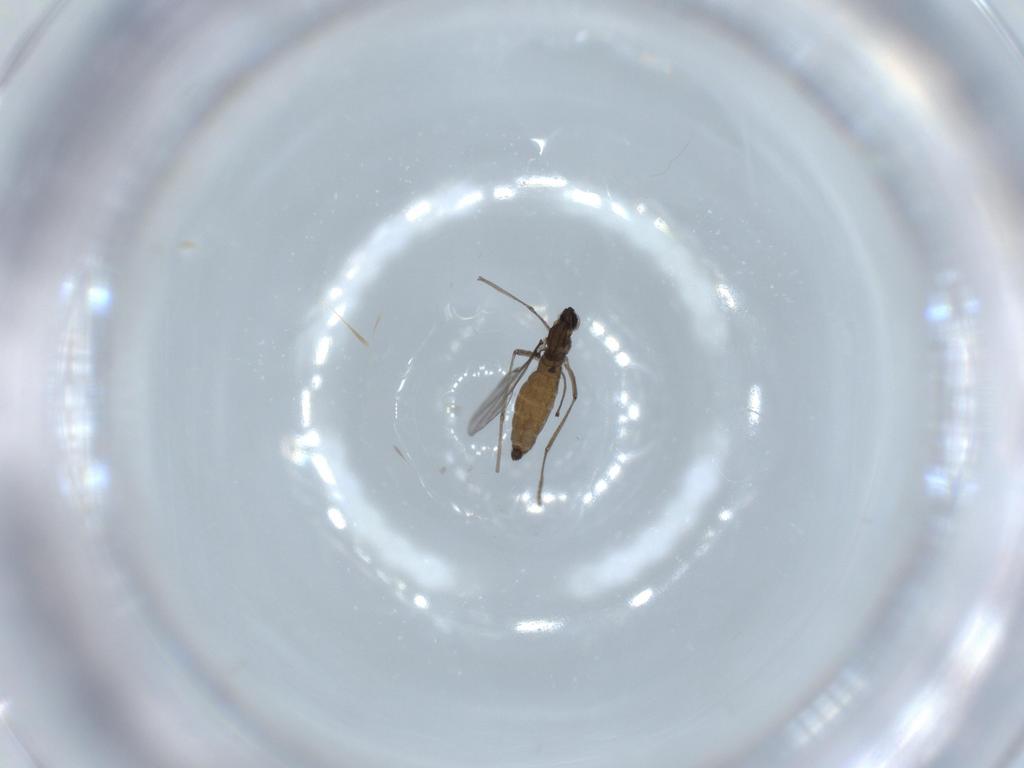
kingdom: Animalia
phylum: Arthropoda
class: Insecta
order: Diptera
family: Cecidomyiidae
